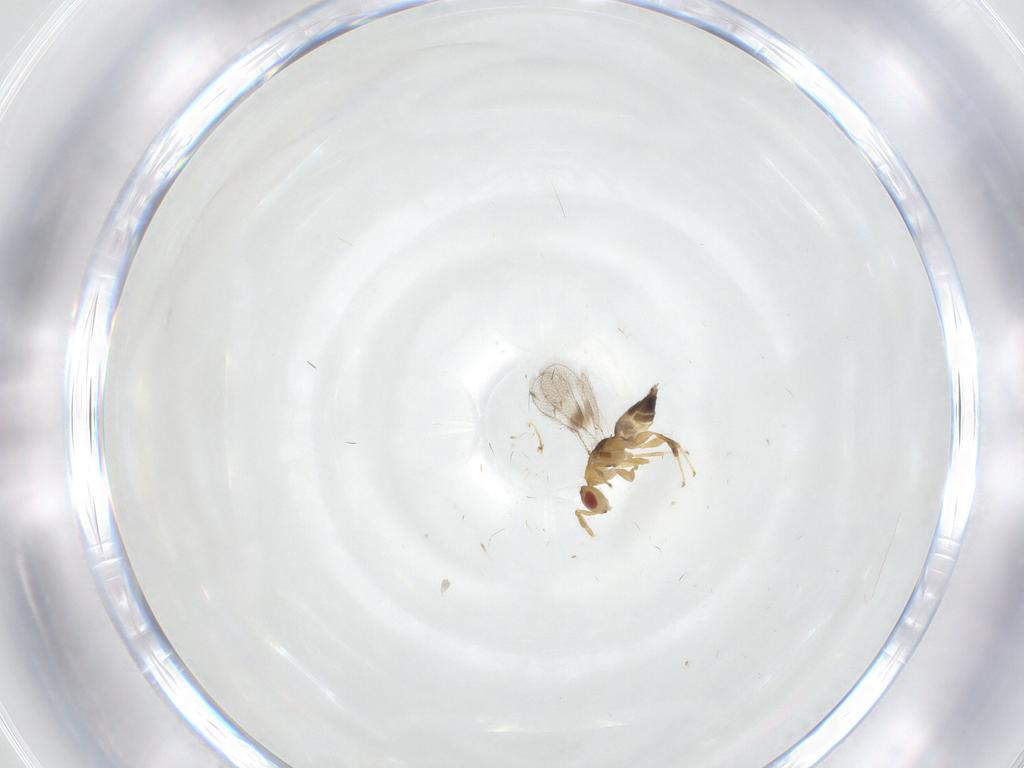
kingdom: Animalia
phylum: Arthropoda
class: Insecta
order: Hymenoptera
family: Torymidae
